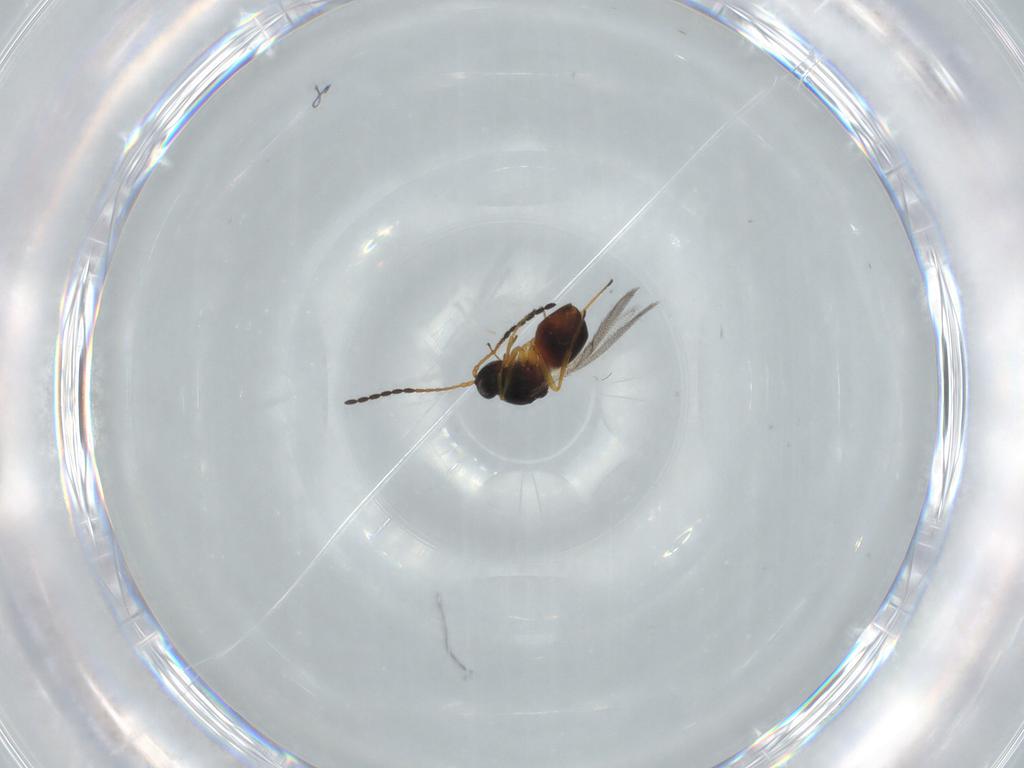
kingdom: Animalia
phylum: Arthropoda
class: Insecta
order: Hymenoptera
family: Figitidae
